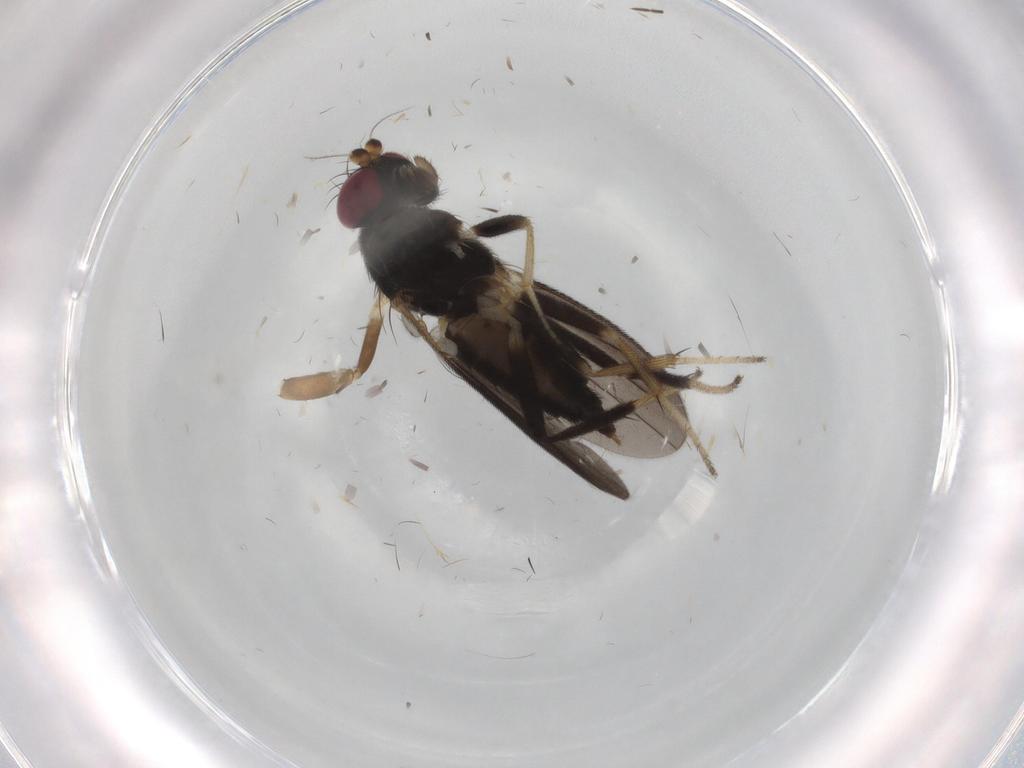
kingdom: Animalia
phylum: Arthropoda
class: Insecta
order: Diptera
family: Clusiidae
